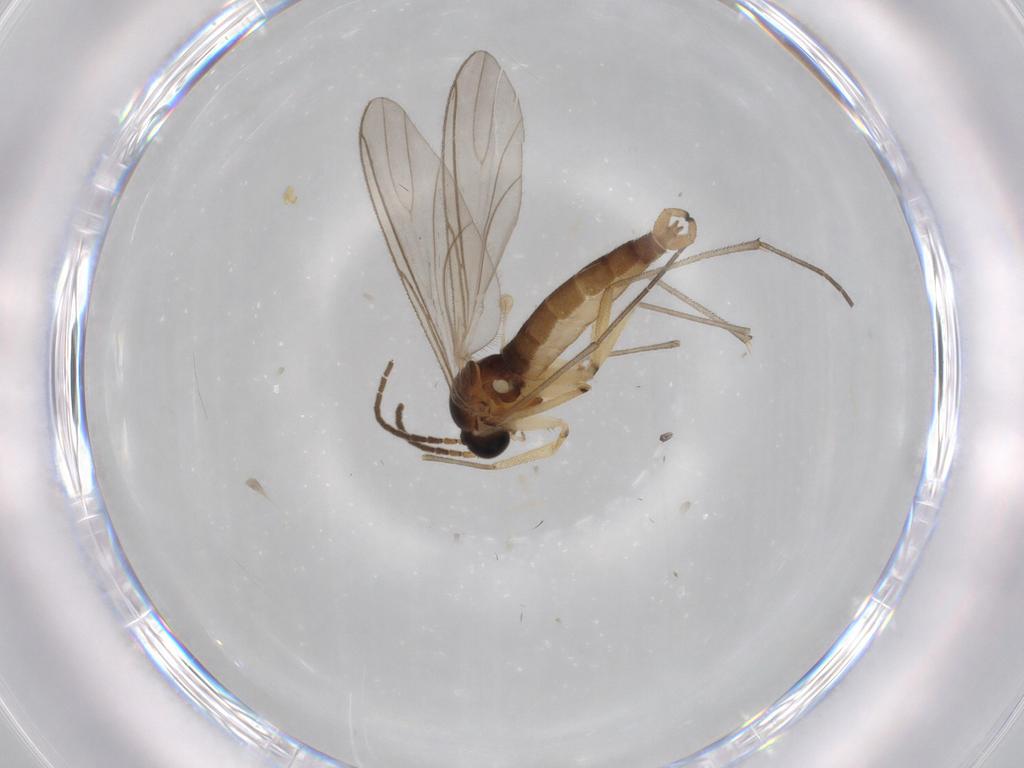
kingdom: Animalia
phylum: Arthropoda
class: Insecta
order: Diptera
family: Sciaridae
